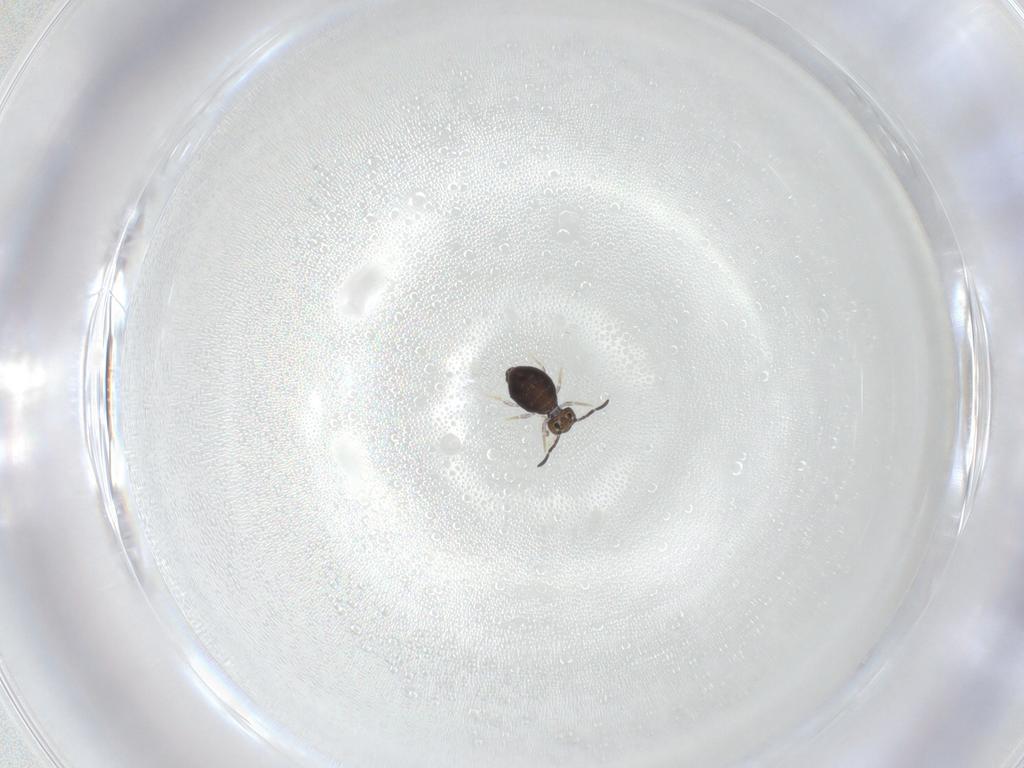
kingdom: Animalia
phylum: Arthropoda
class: Collembola
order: Symphypleona
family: Katiannidae
